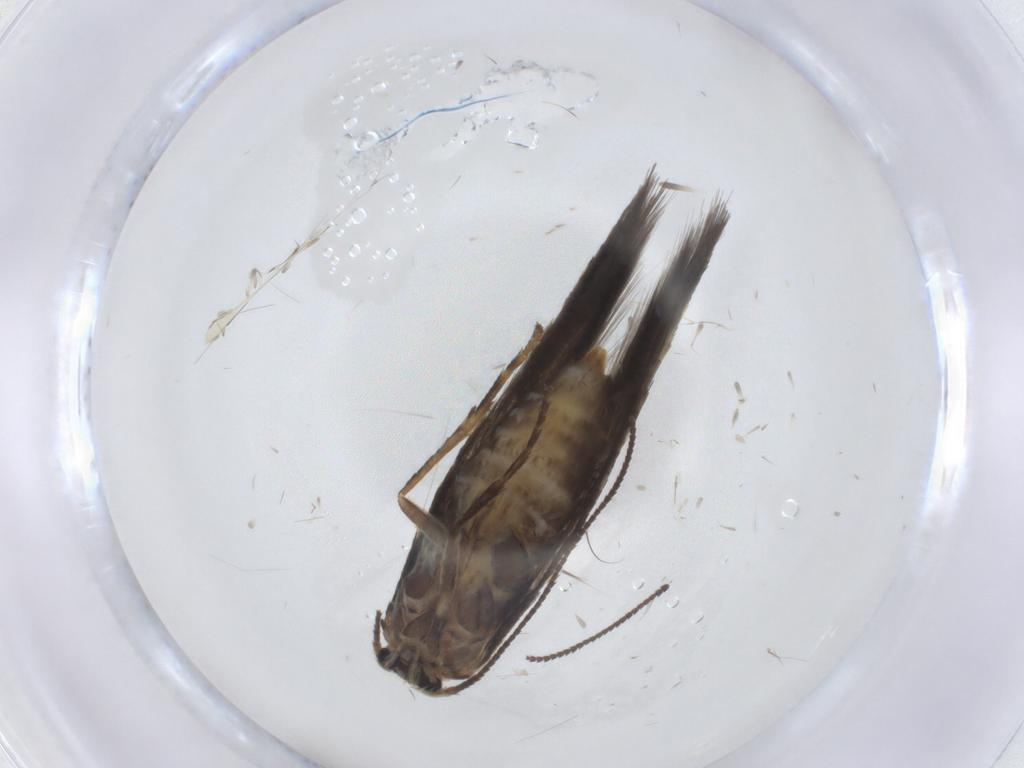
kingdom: Animalia
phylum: Arthropoda
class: Insecta
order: Lepidoptera
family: Nepticulidae
